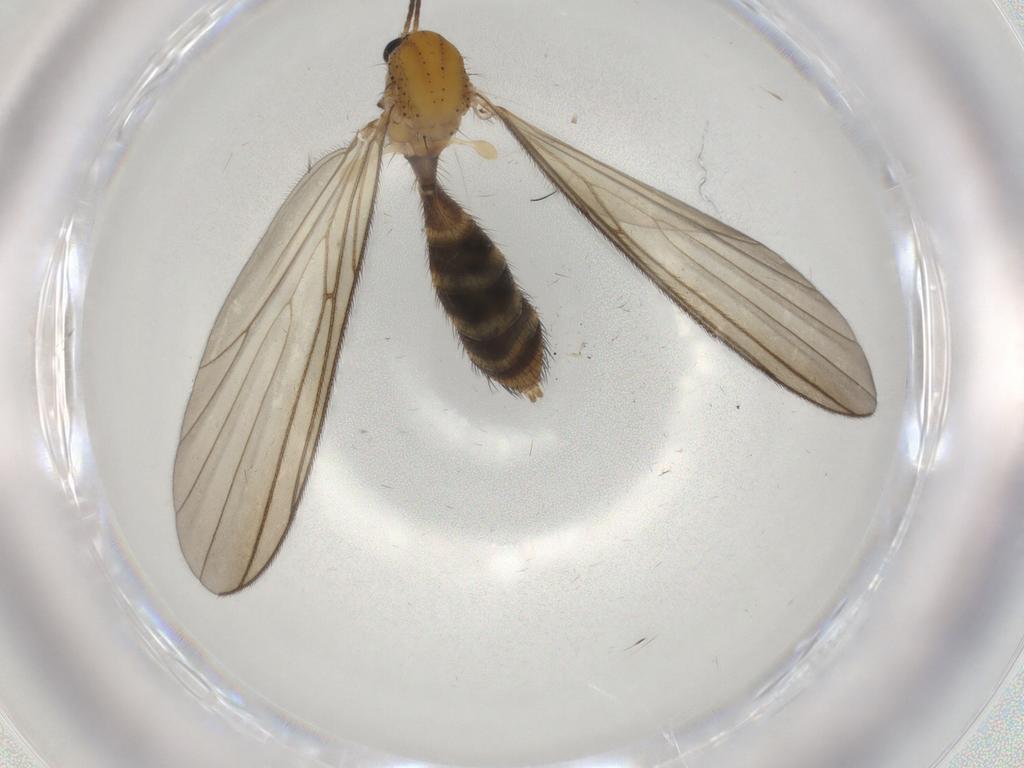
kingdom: Animalia
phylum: Arthropoda
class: Insecta
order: Diptera
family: Mycetophilidae
